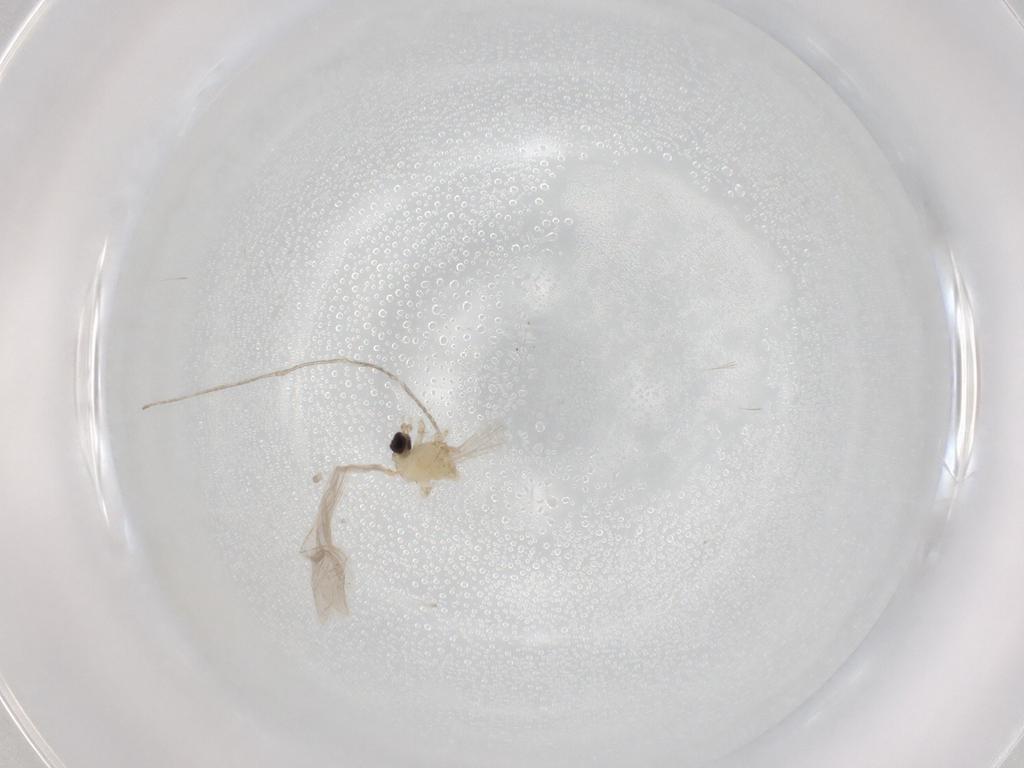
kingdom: Animalia
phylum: Arthropoda
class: Insecta
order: Diptera
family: Cecidomyiidae
